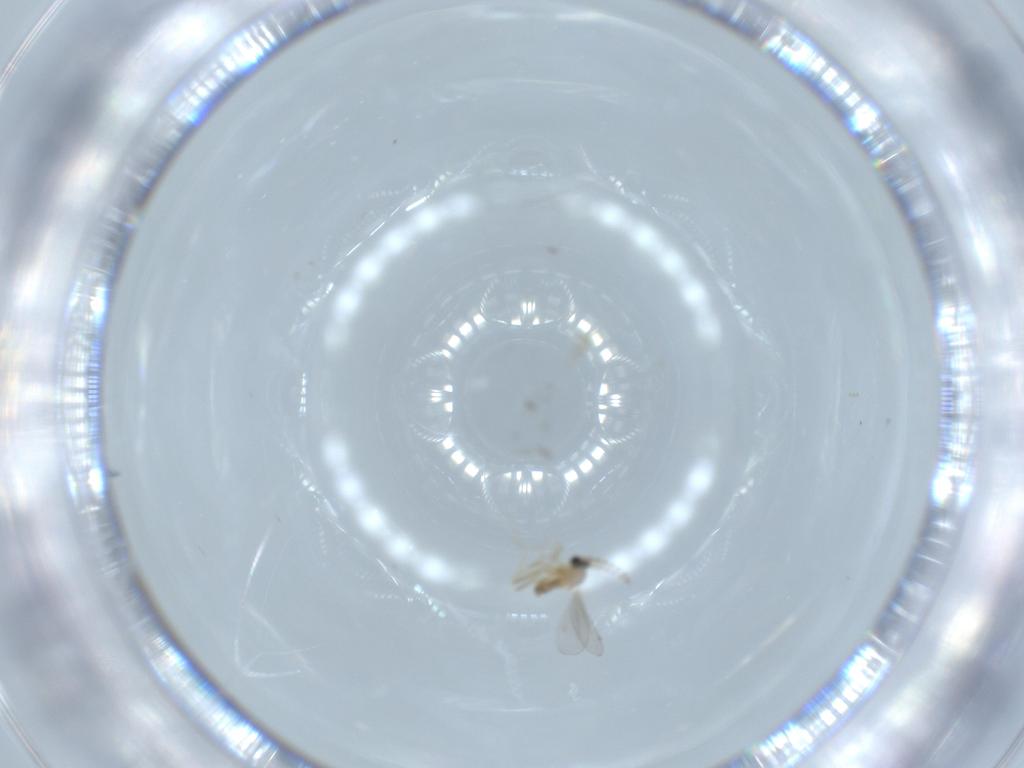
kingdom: Animalia
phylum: Arthropoda
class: Insecta
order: Diptera
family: Cecidomyiidae
